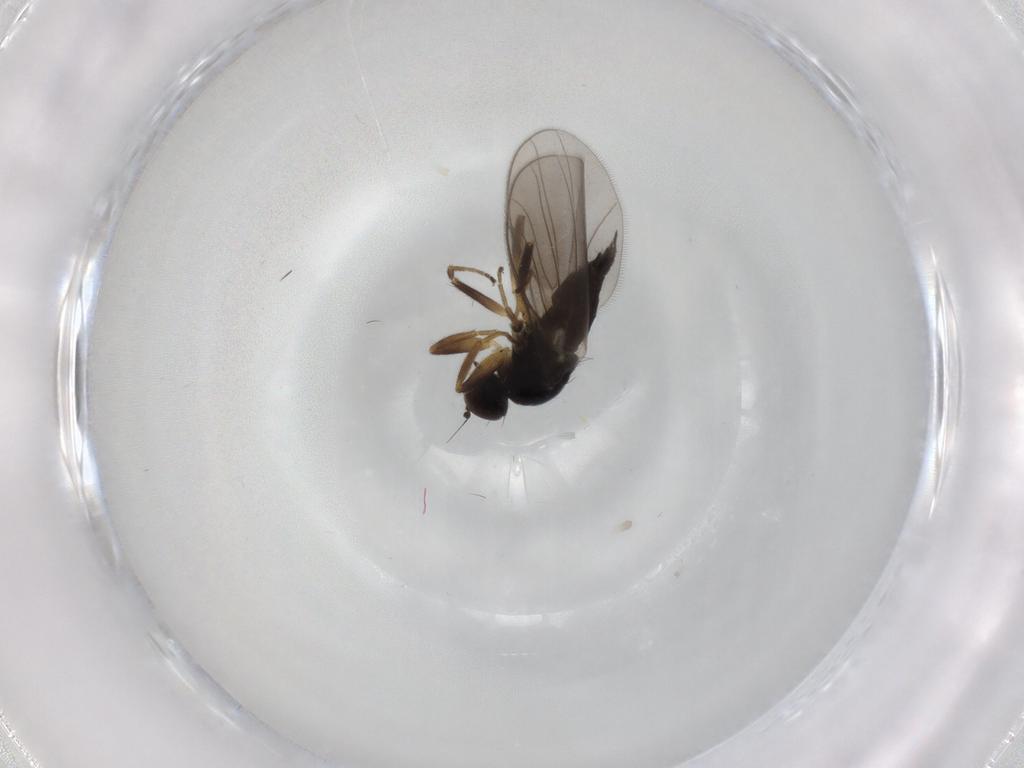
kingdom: Animalia
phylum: Arthropoda
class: Insecta
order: Diptera
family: Hybotidae
